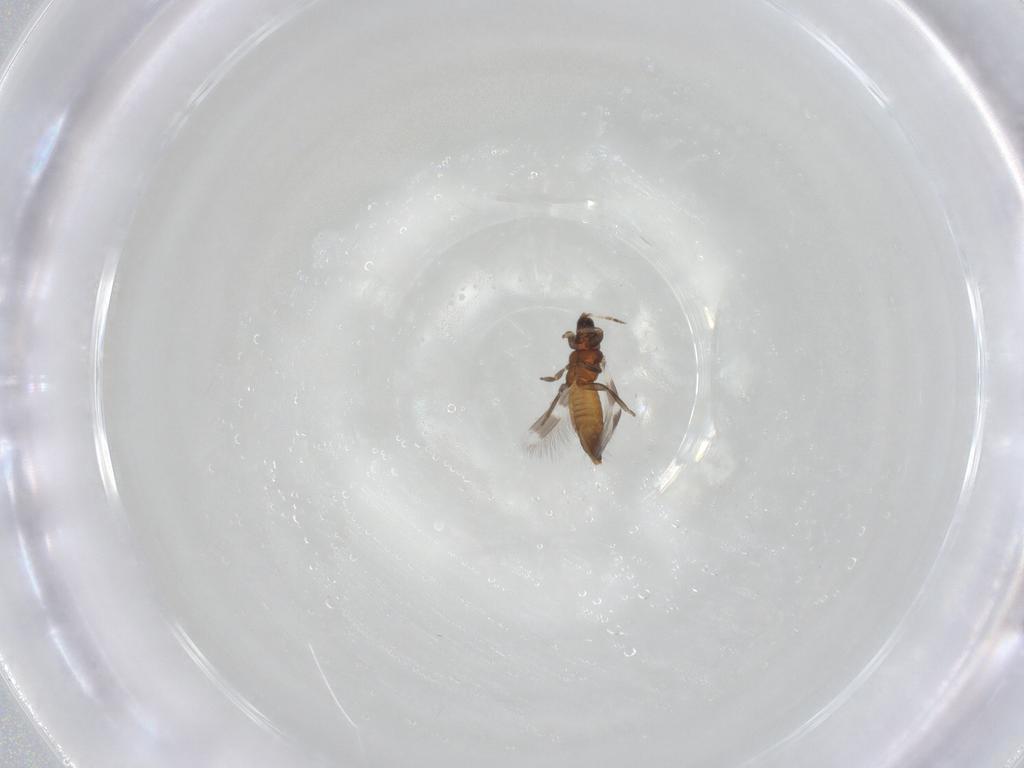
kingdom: Animalia
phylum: Arthropoda
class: Insecta
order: Thysanoptera
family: Aeolothripidae
